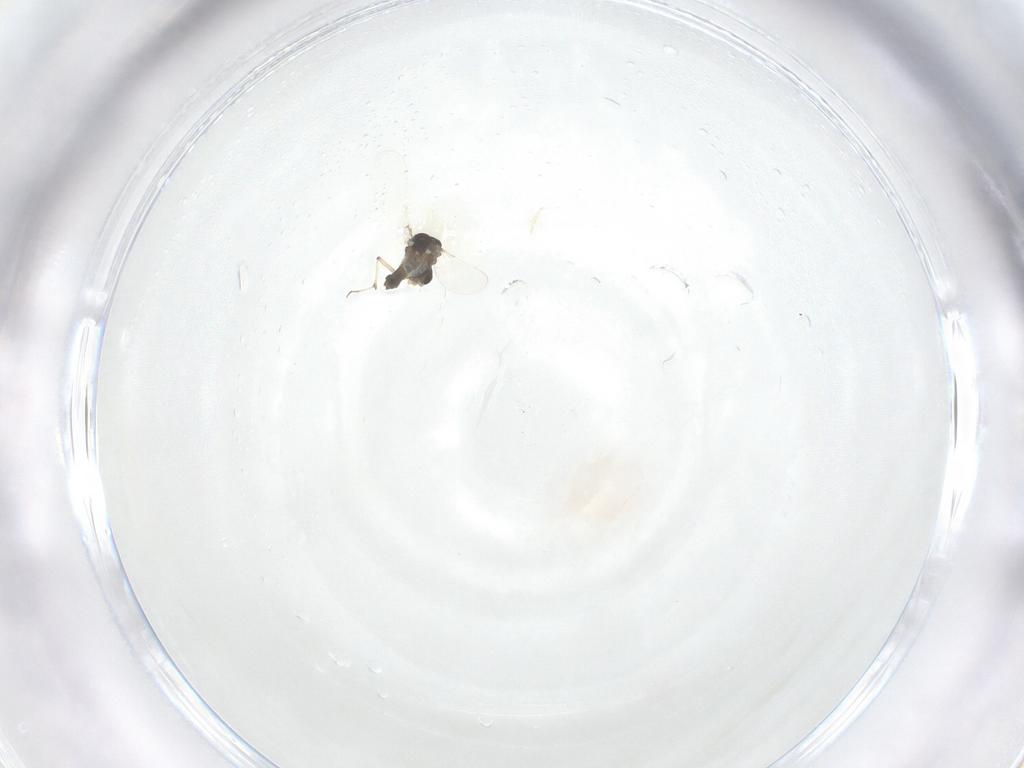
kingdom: Animalia
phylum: Arthropoda
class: Insecta
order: Diptera
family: Chironomidae
